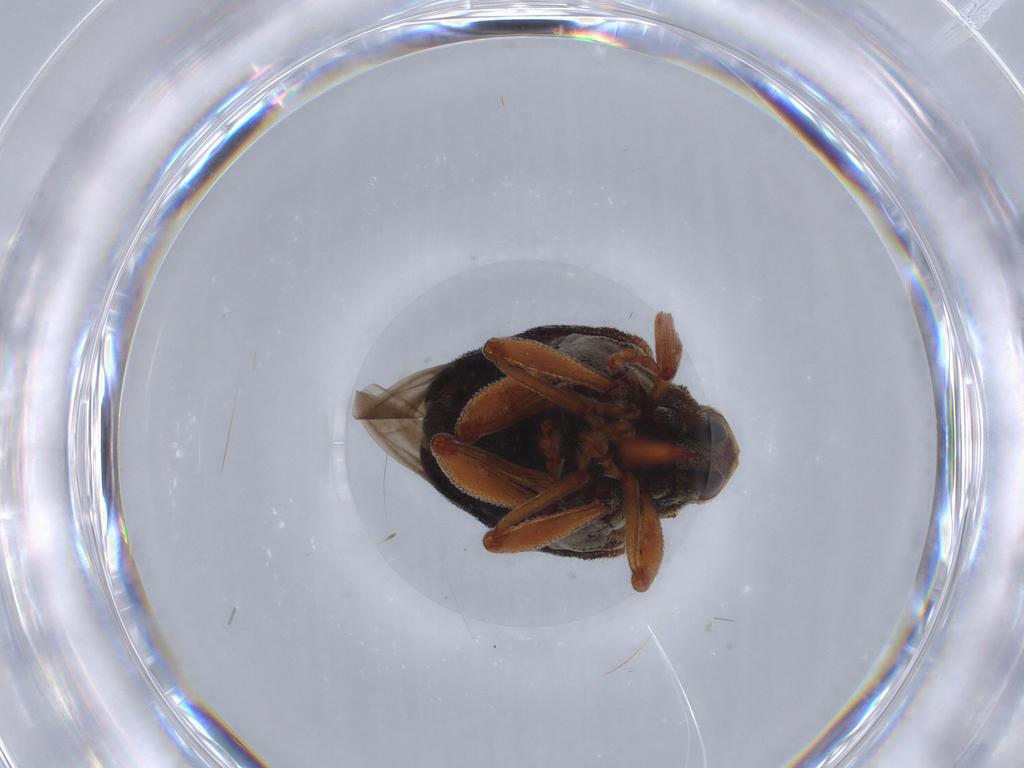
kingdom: Animalia
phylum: Arthropoda
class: Insecta
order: Coleoptera
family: Curculionidae
